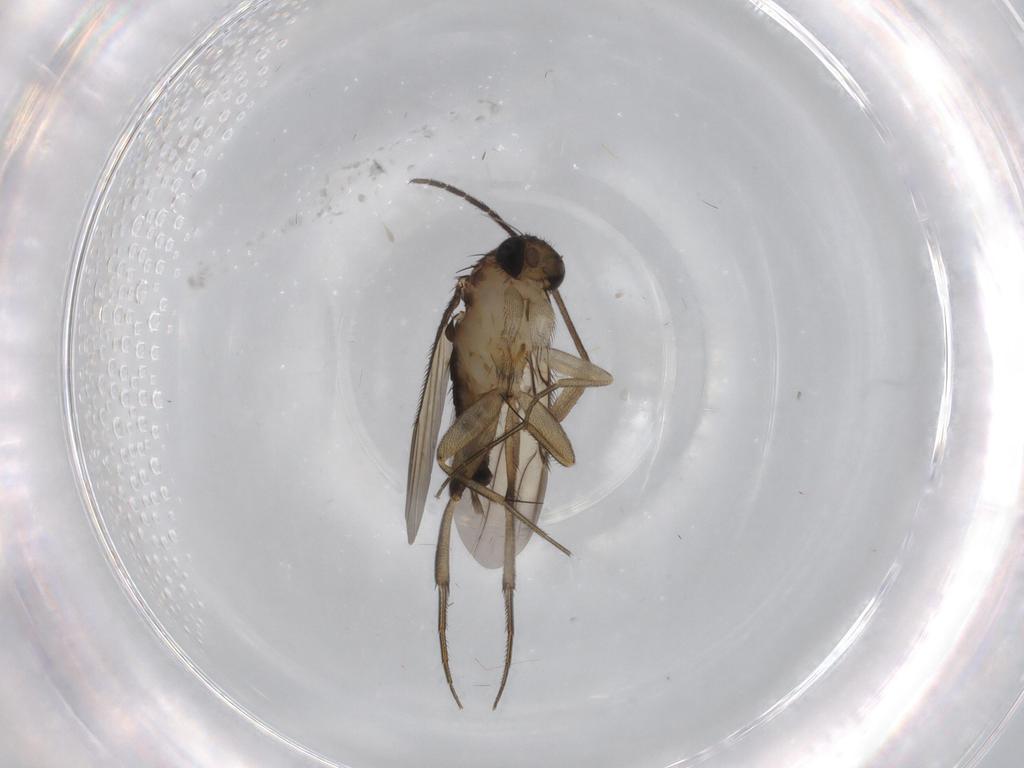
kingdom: Animalia
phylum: Arthropoda
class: Insecta
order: Diptera
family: Sciaridae
